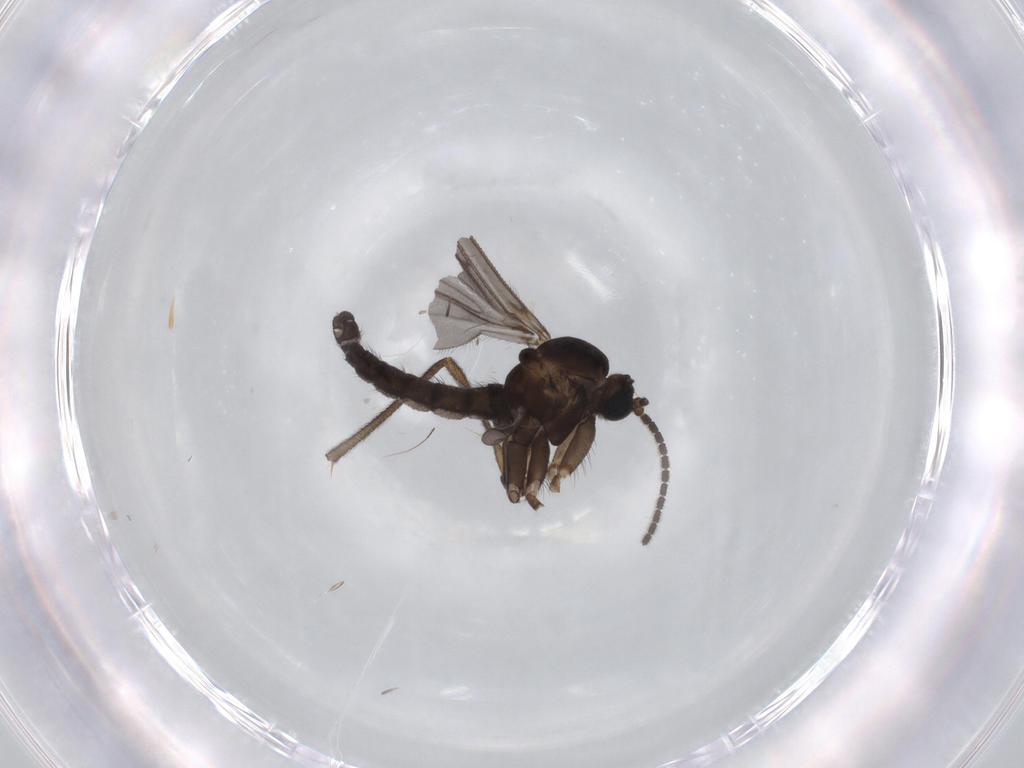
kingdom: Animalia
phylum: Arthropoda
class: Insecta
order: Diptera
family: Sciaridae
